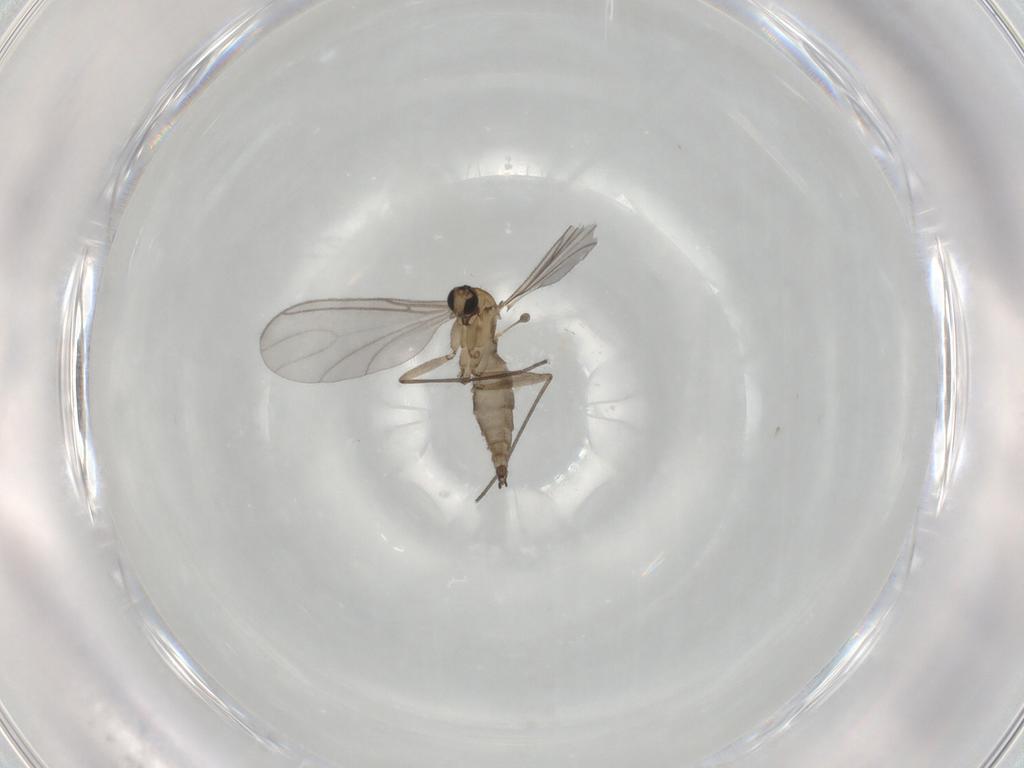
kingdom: Animalia
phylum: Arthropoda
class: Insecta
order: Diptera
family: Sciaridae
